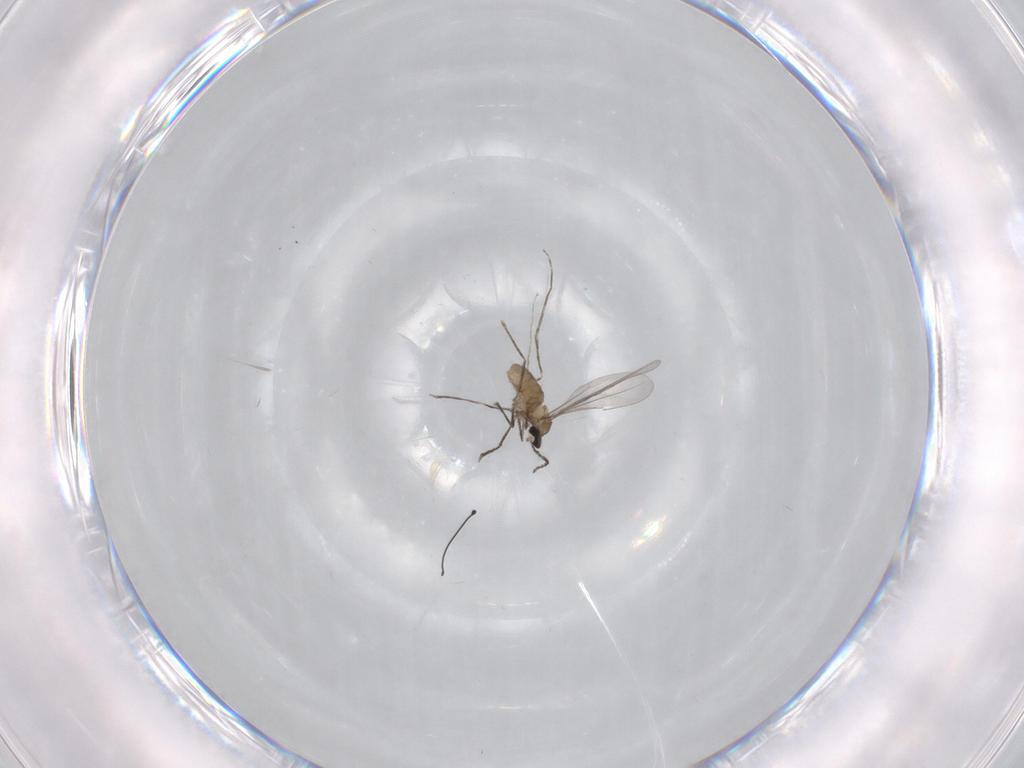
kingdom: Animalia
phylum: Arthropoda
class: Insecta
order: Diptera
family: Cecidomyiidae
